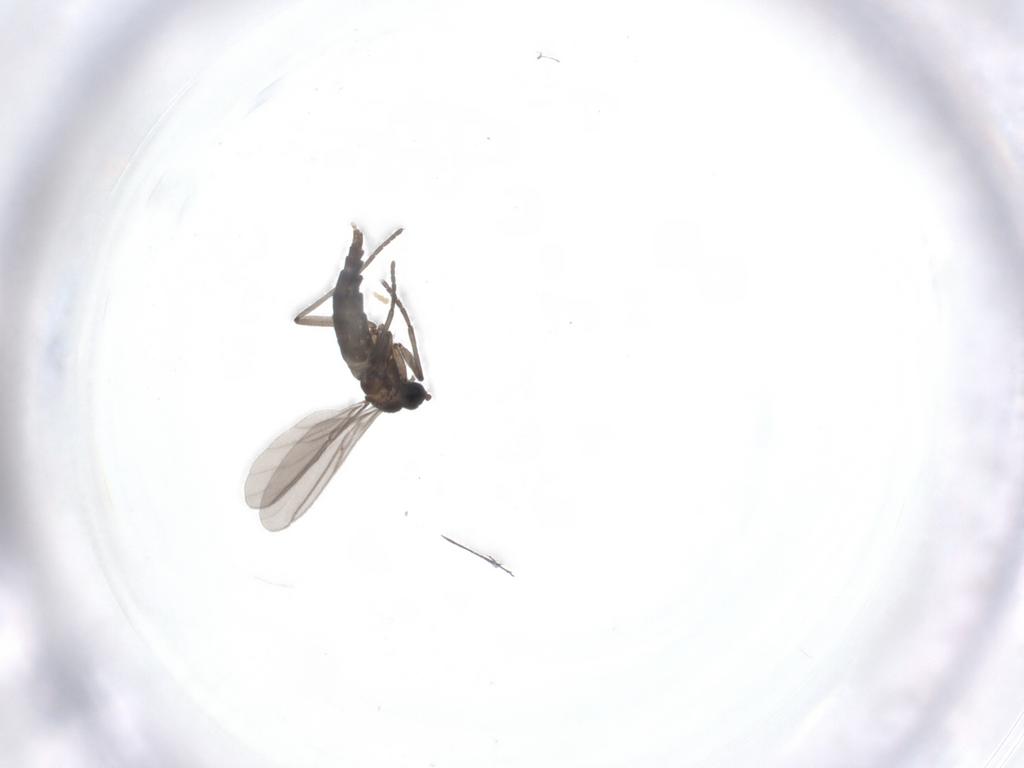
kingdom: Animalia
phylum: Arthropoda
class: Insecta
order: Diptera
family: Sciaridae
